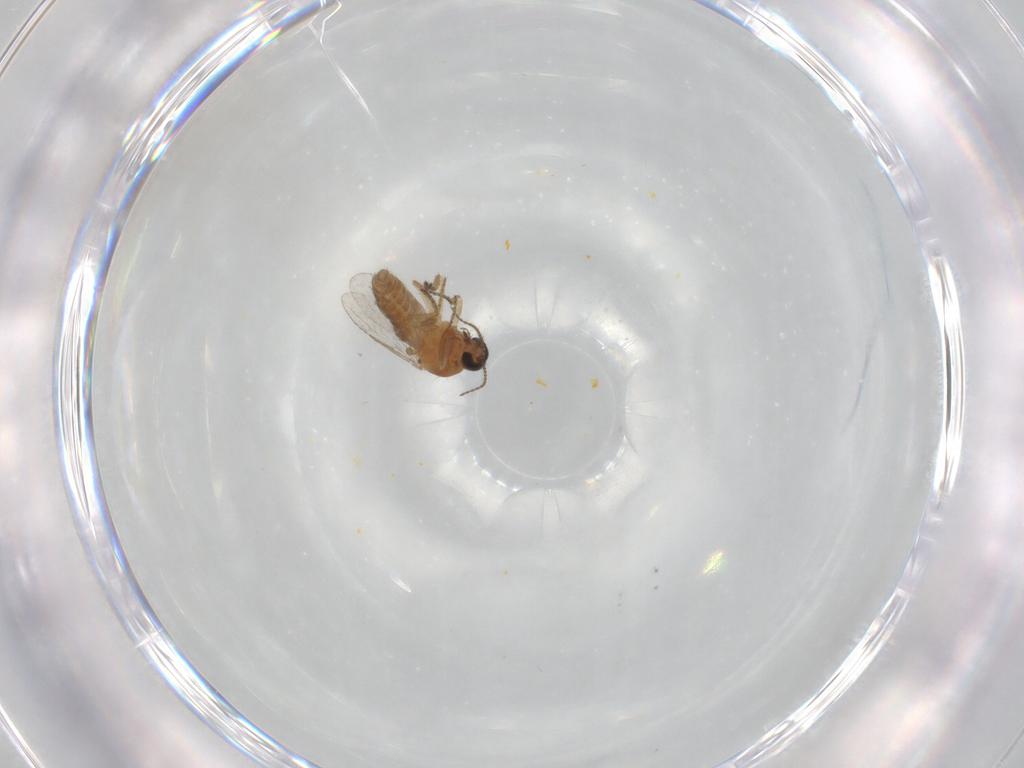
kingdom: Animalia
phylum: Arthropoda
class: Insecta
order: Diptera
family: Ceratopogonidae
